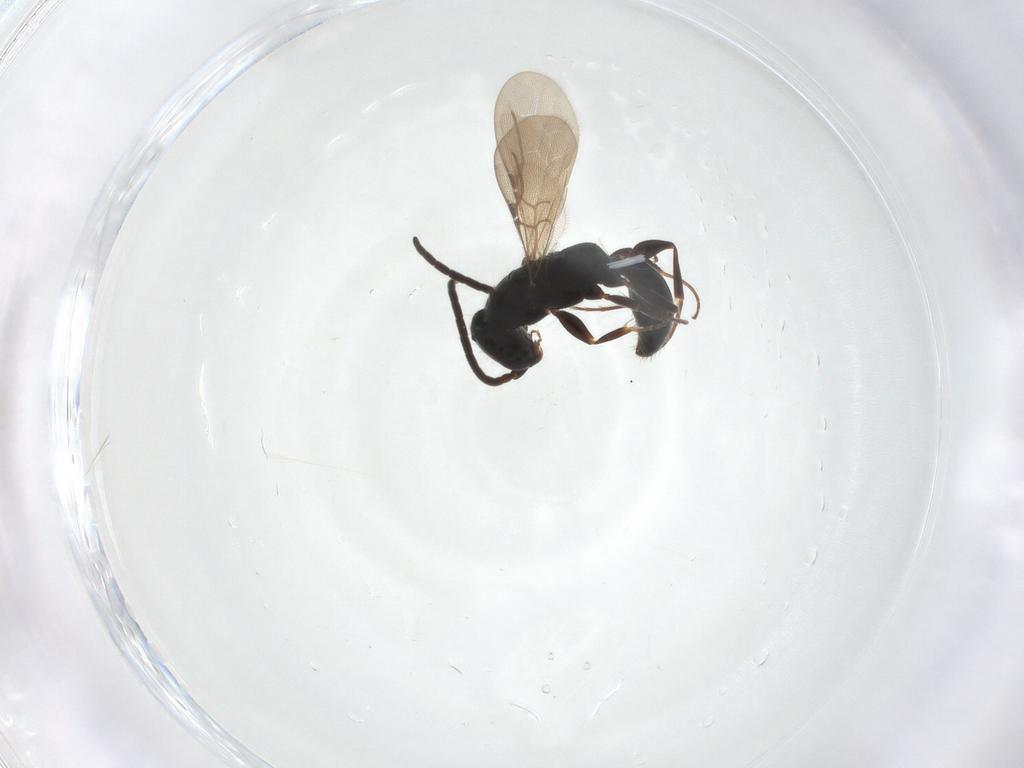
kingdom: Animalia
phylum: Arthropoda
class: Insecta
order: Hymenoptera
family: Bethylidae
